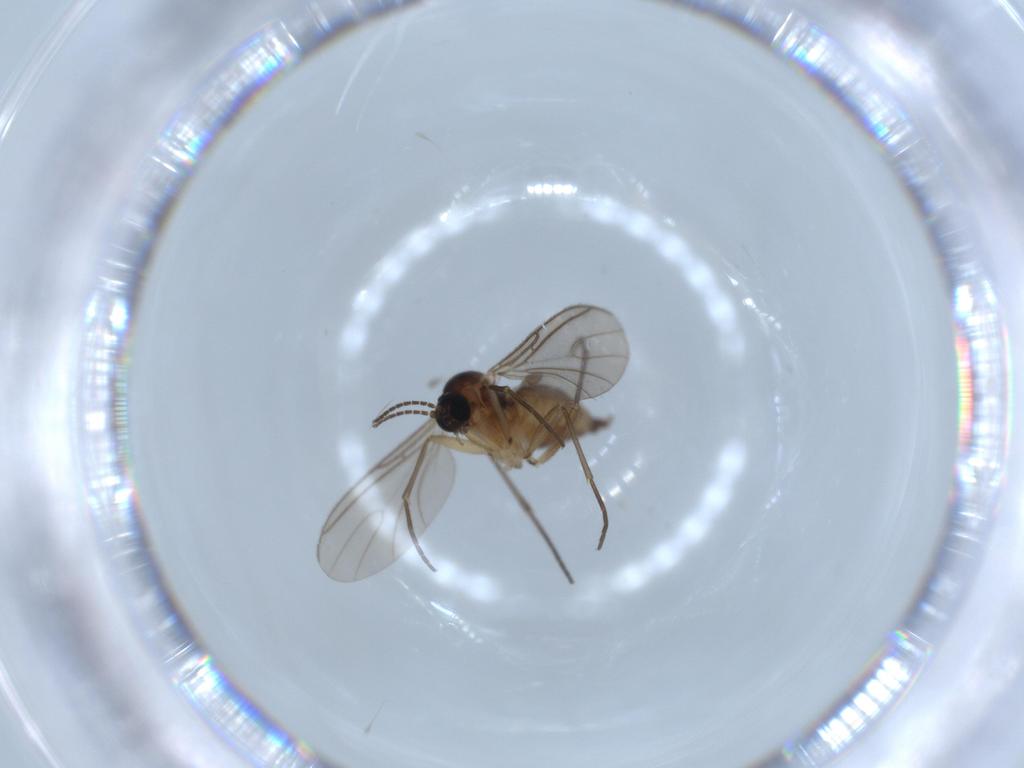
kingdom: Animalia
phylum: Arthropoda
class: Insecta
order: Diptera
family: Sciaridae
